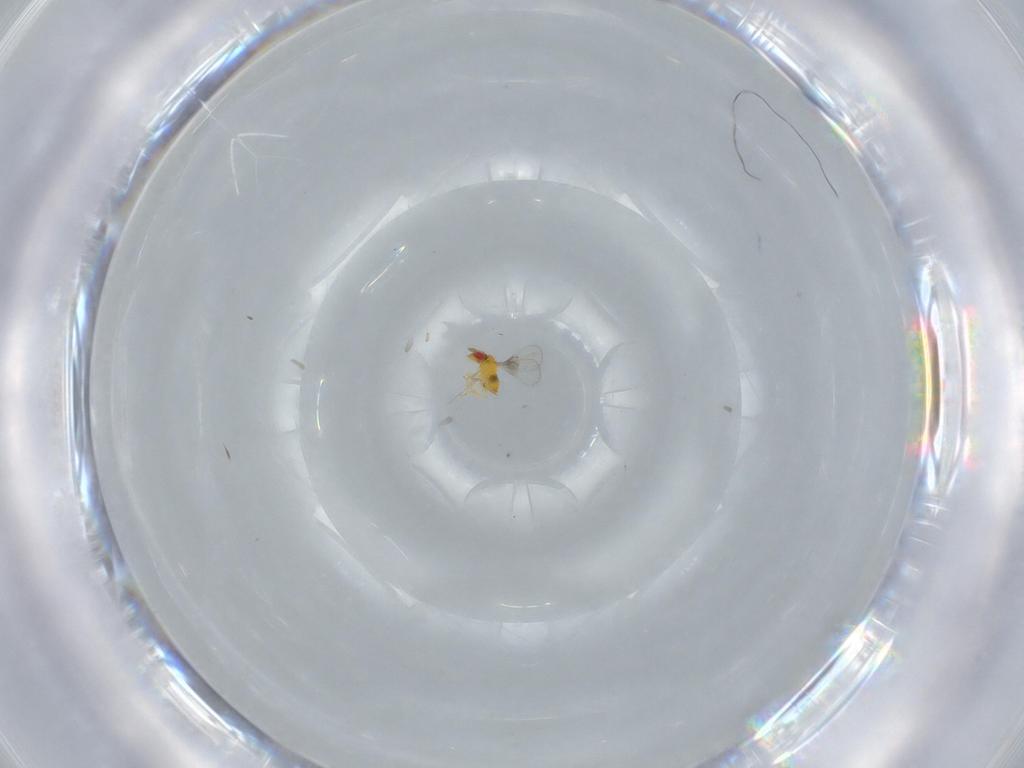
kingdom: Animalia
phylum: Arthropoda
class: Insecta
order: Hymenoptera
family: Trichogrammatidae
